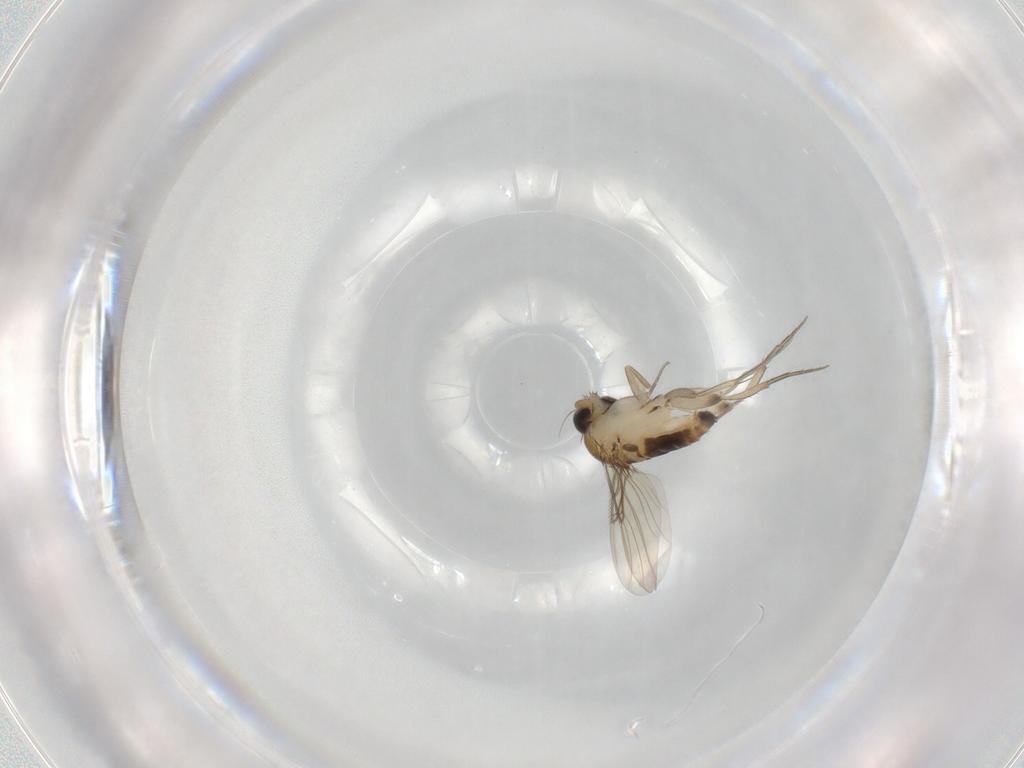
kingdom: Animalia
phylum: Arthropoda
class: Insecta
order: Diptera
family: Phoridae
